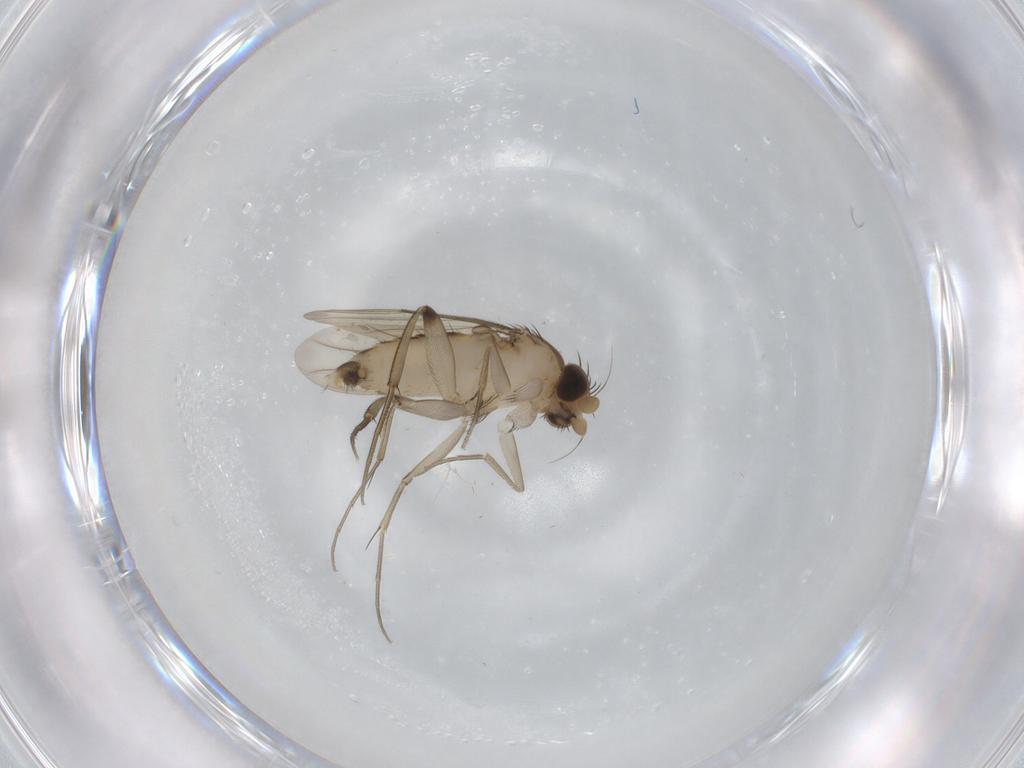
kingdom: Animalia
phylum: Arthropoda
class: Insecta
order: Diptera
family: Phoridae
